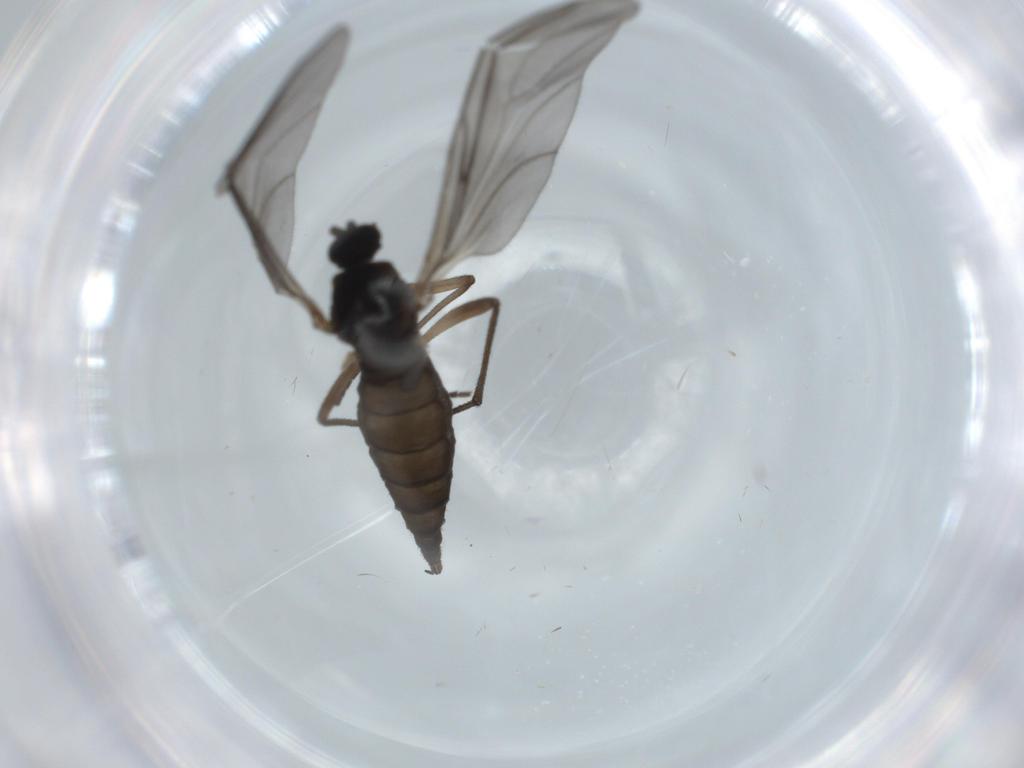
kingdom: Animalia
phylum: Arthropoda
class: Insecta
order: Diptera
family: Sciaridae
